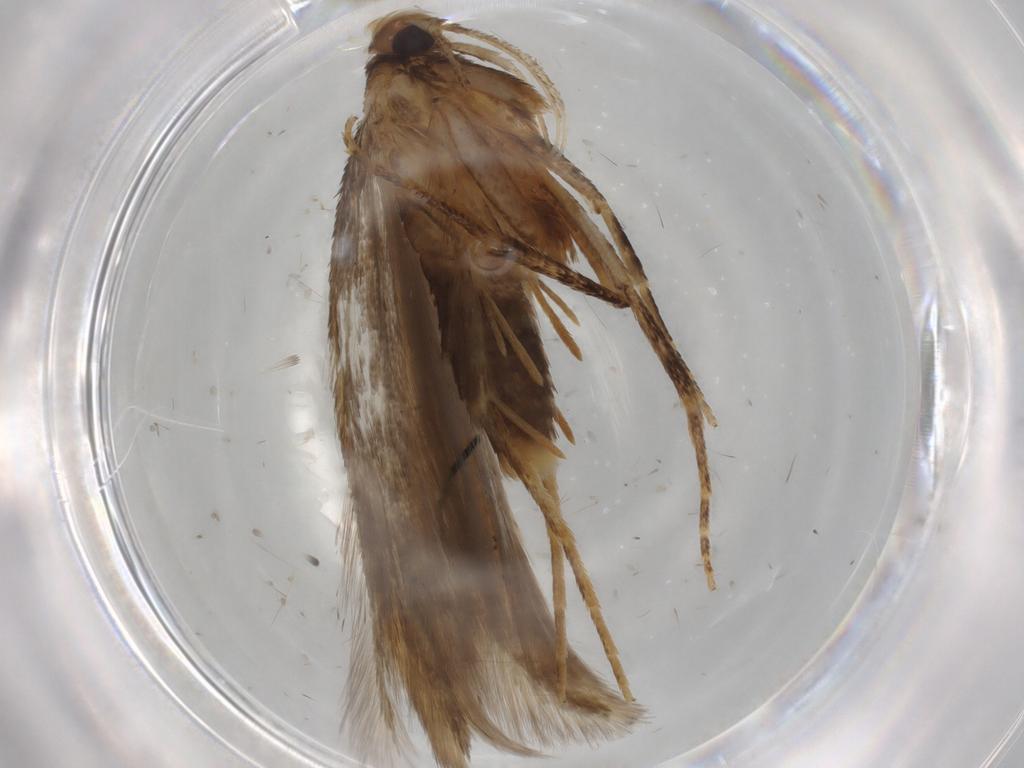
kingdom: Animalia
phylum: Arthropoda
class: Insecta
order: Lepidoptera
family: Gelechiidae
